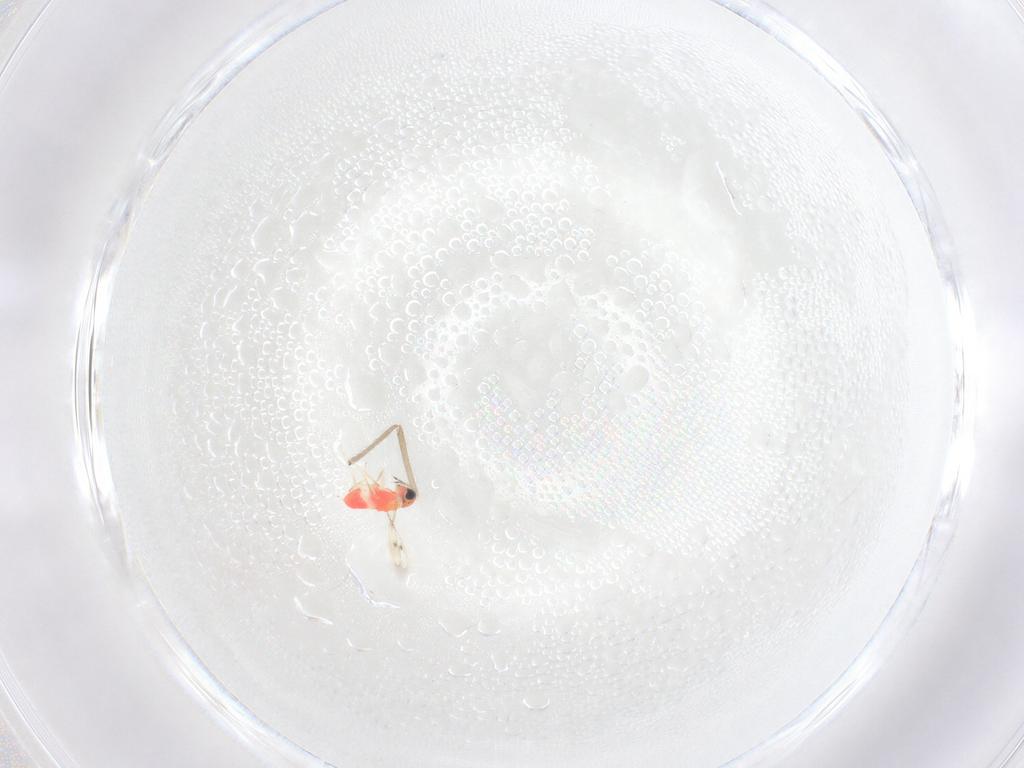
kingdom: Animalia
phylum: Arthropoda
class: Insecta
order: Hymenoptera
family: Trichogrammatidae
